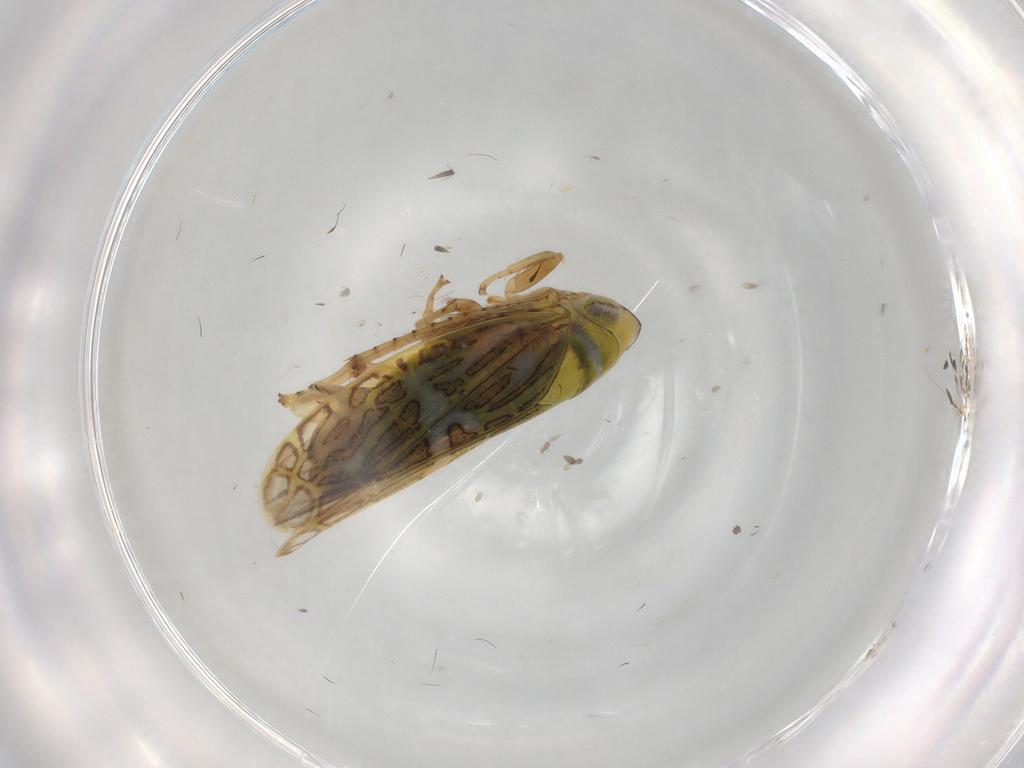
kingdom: Animalia
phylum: Arthropoda
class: Insecta
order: Hemiptera
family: Cicadellidae
